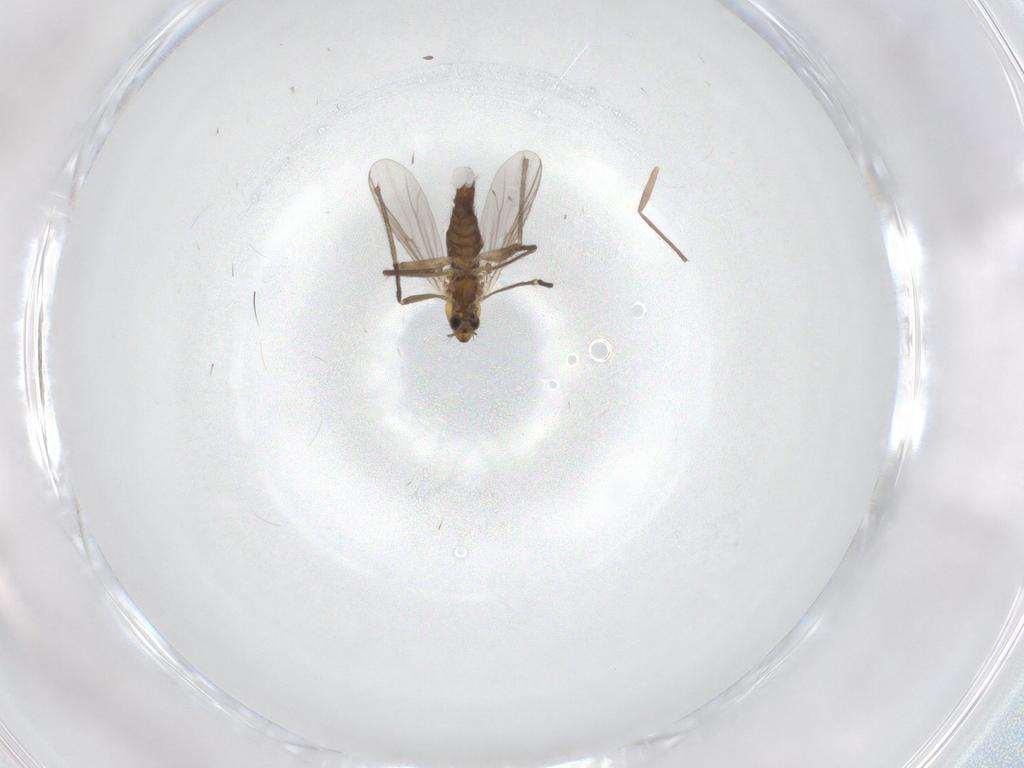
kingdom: Animalia
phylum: Arthropoda
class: Insecta
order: Diptera
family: Chironomidae
